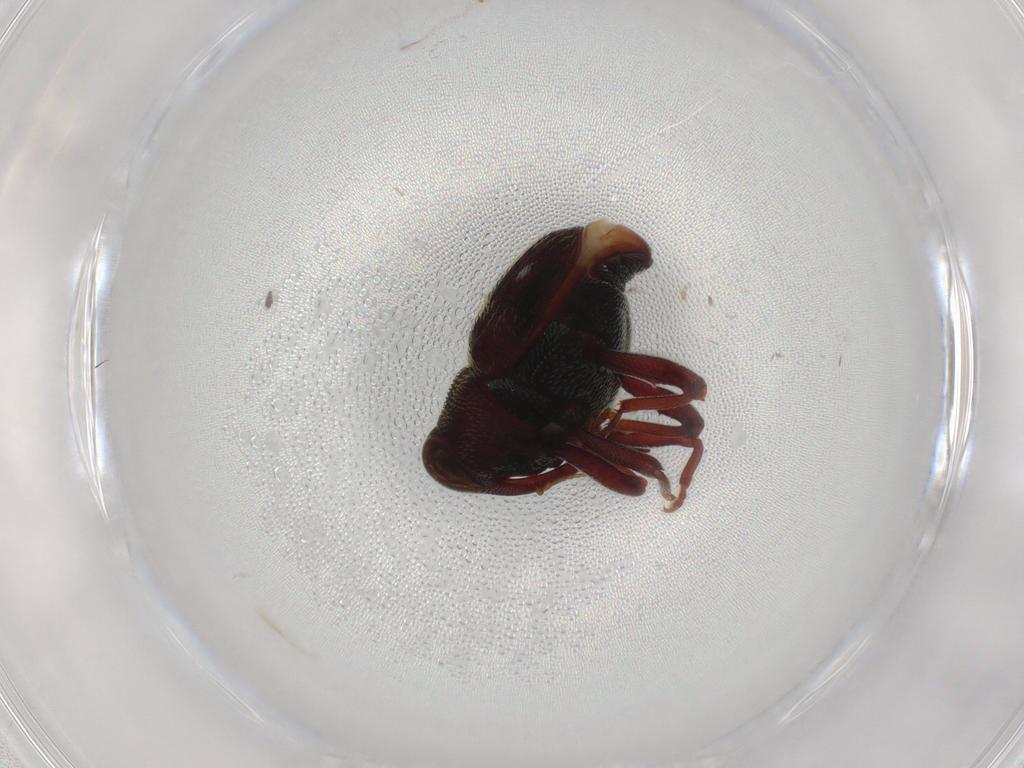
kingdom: Animalia
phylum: Arthropoda
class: Insecta
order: Coleoptera
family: Curculionidae
